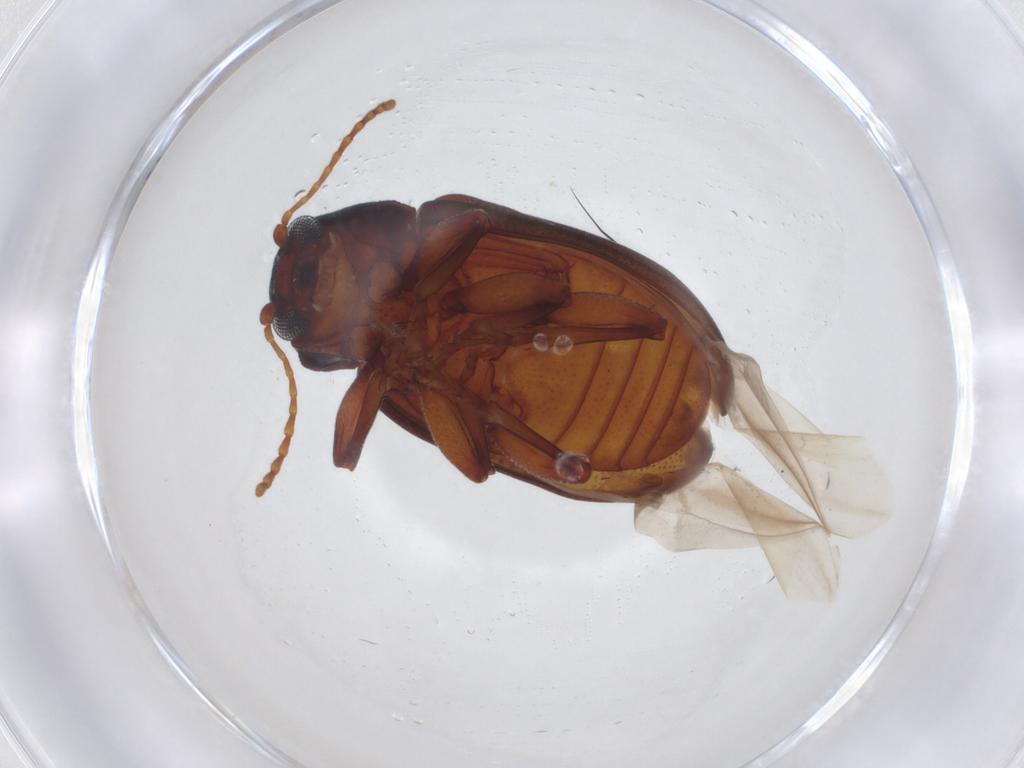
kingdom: Animalia
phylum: Arthropoda
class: Insecta
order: Coleoptera
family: Chrysomelidae
